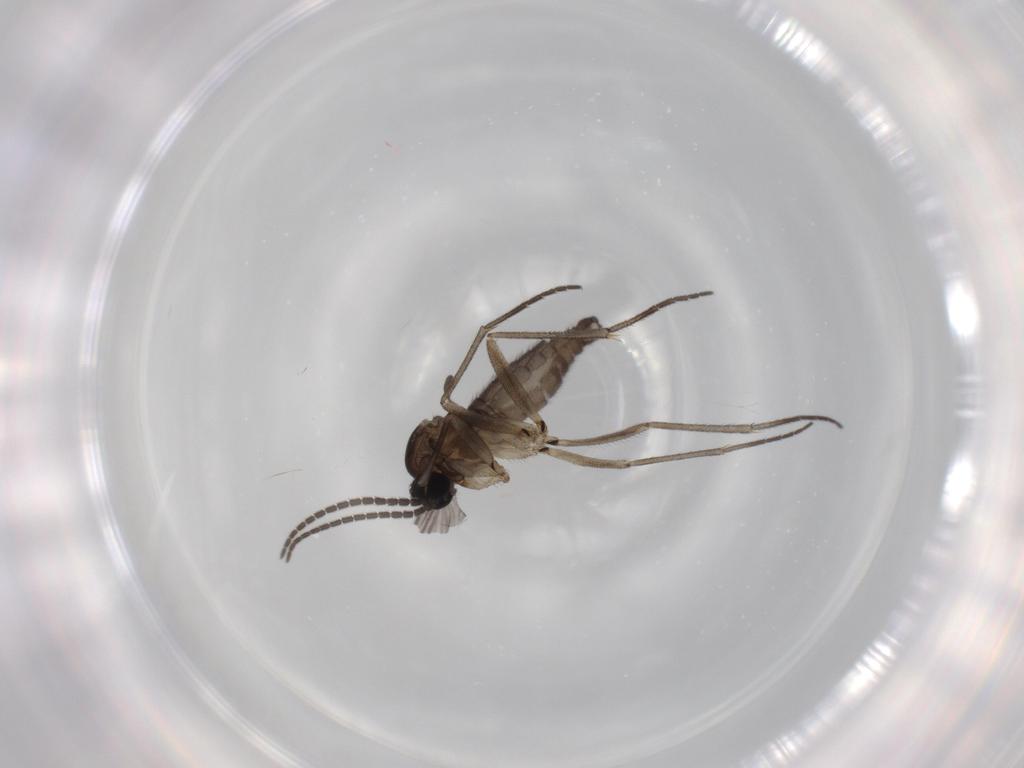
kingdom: Animalia
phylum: Arthropoda
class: Insecta
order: Diptera
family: Sciaridae
